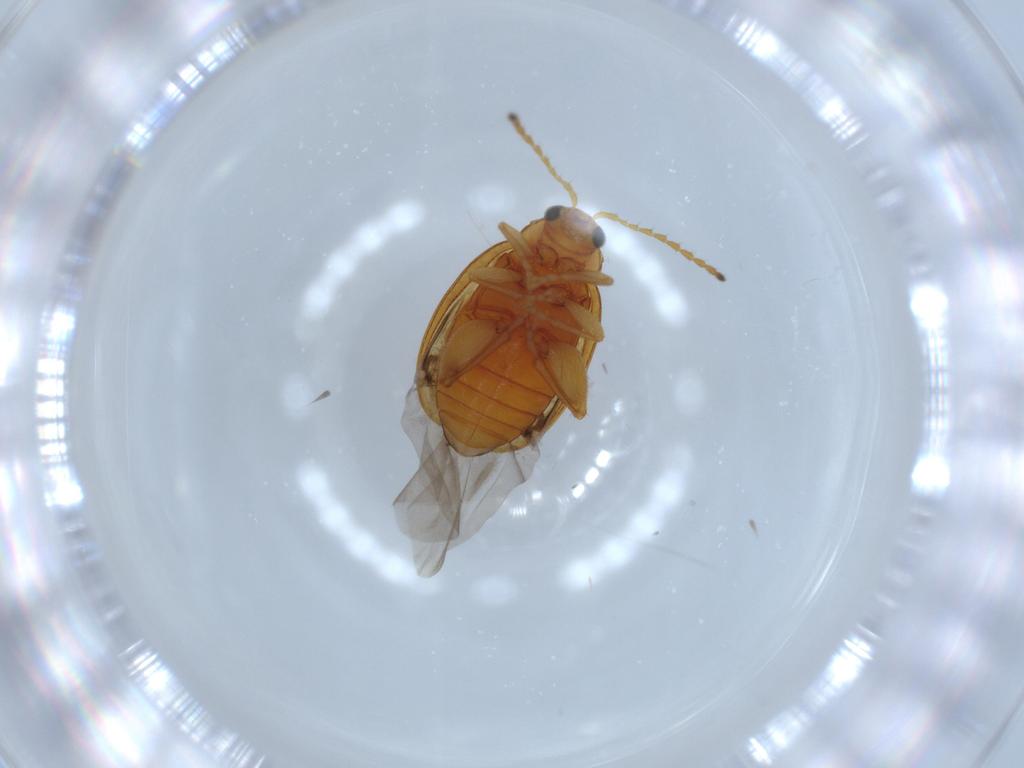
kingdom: Animalia
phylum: Arthropoda
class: Insecta
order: Coleoptera
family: Chrysomelidae
